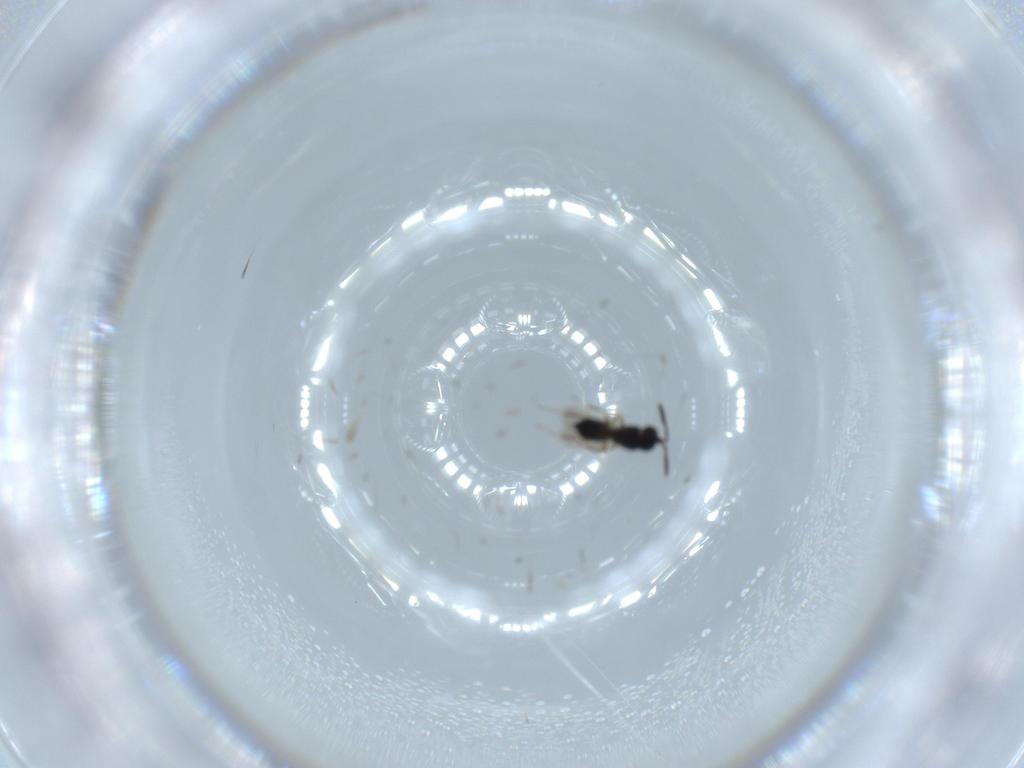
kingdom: Animalia
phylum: Arthropoda
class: Insecta
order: Hymenoptera
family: Scelionidae
